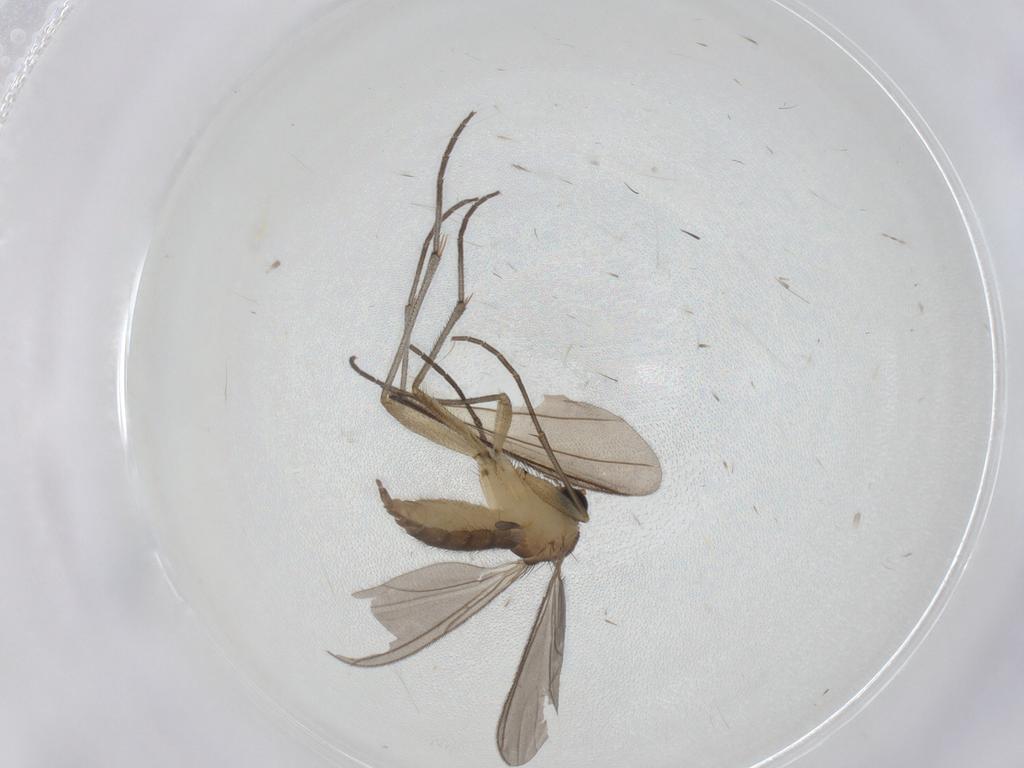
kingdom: Animalia
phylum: Arthropoda
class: Insecta
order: Diptera
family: Sciaridae
